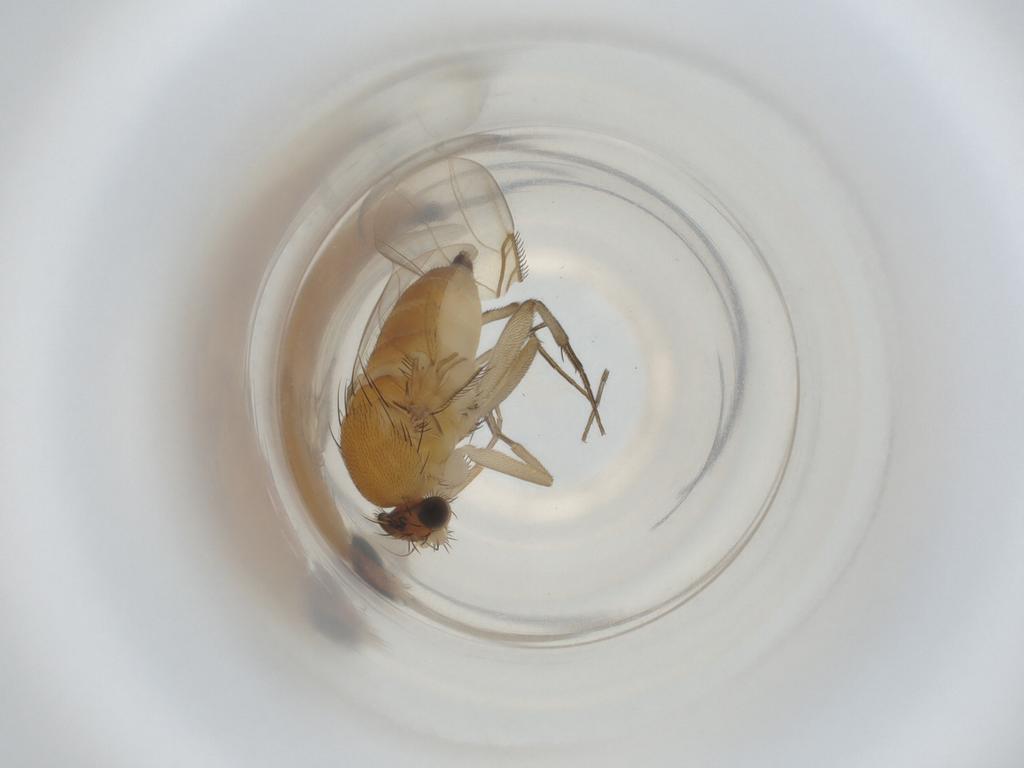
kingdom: Animalia
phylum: Arthropoda
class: Insecta
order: Diptera
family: Phoridae
